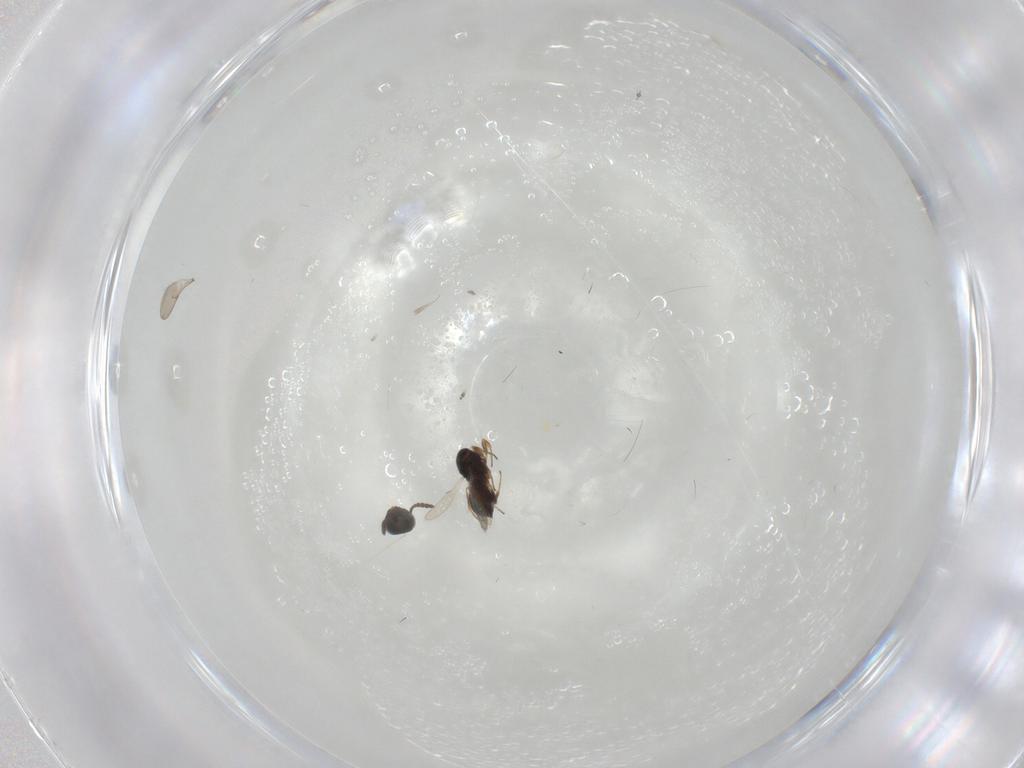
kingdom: Animalia
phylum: Arthropoda
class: Insecta
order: Hymenoptera
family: Scelionidae
